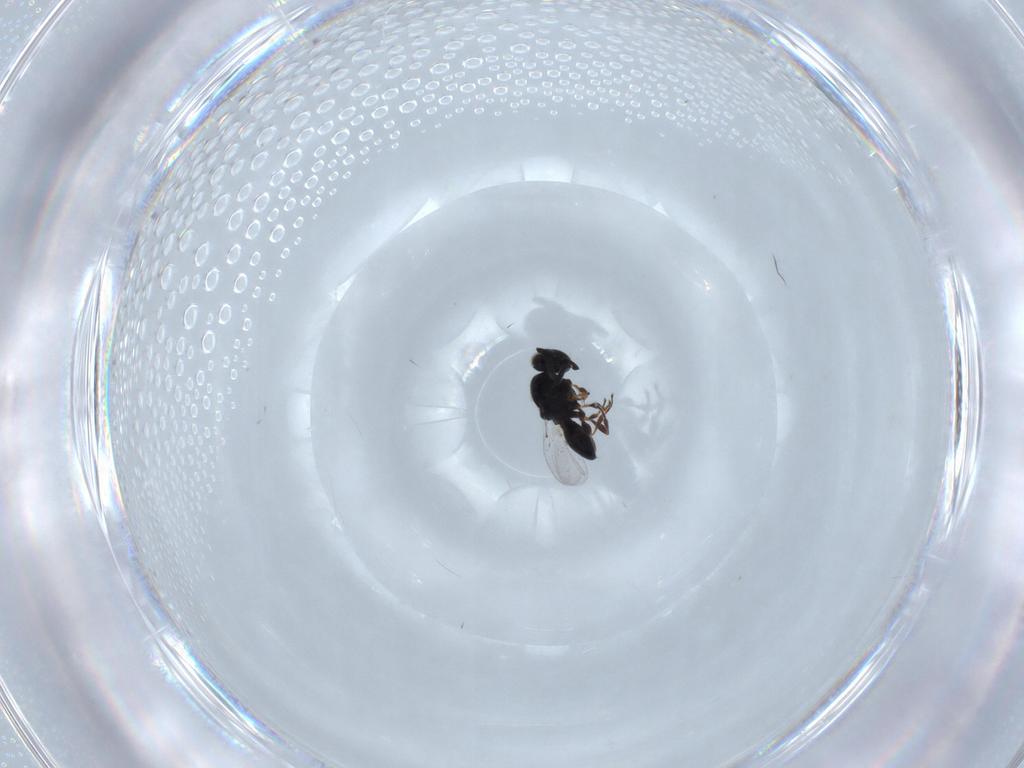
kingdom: Animalia
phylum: Arthropoda
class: Insecta
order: Hymenoptera
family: Platygastridae
